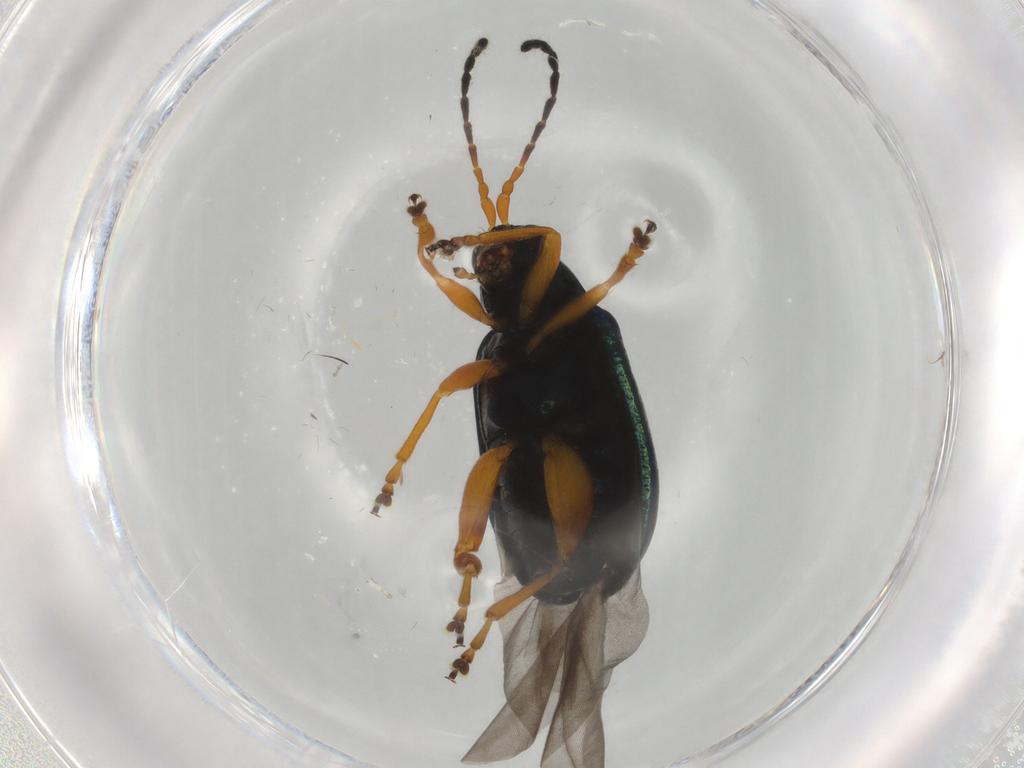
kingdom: Animalia
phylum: Arthropoda
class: Insecta
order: Coleoptera
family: Chrysomelidae
